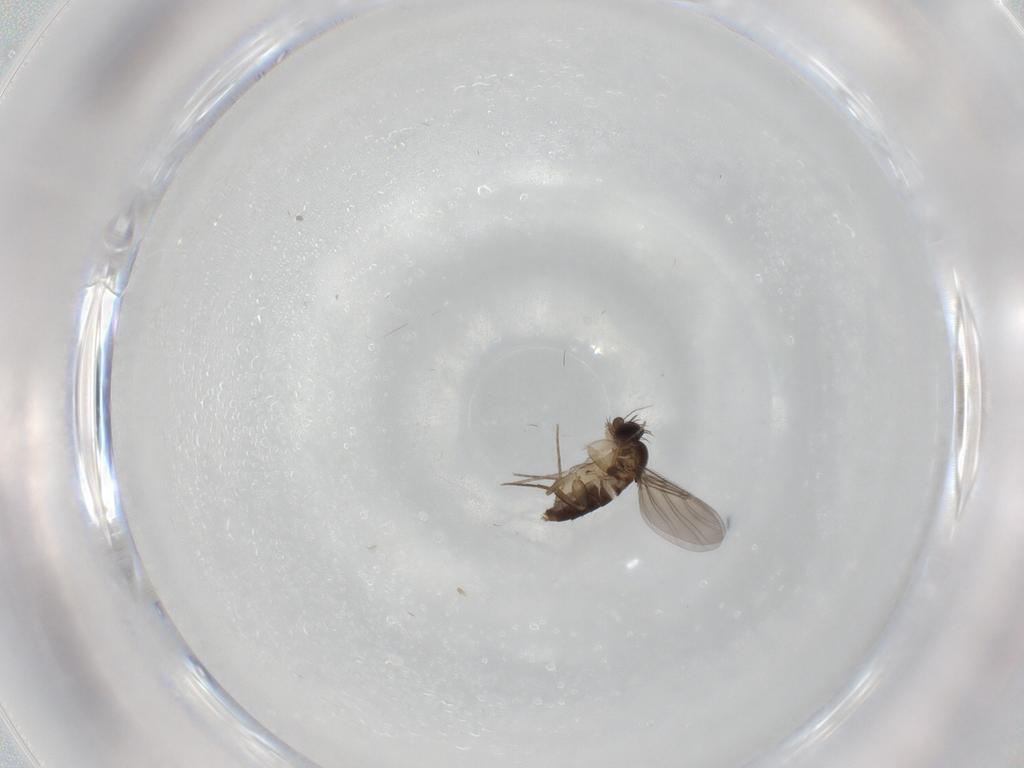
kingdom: Animalia
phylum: Arthropoda
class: Insecta
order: Diptera
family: Phoridae
